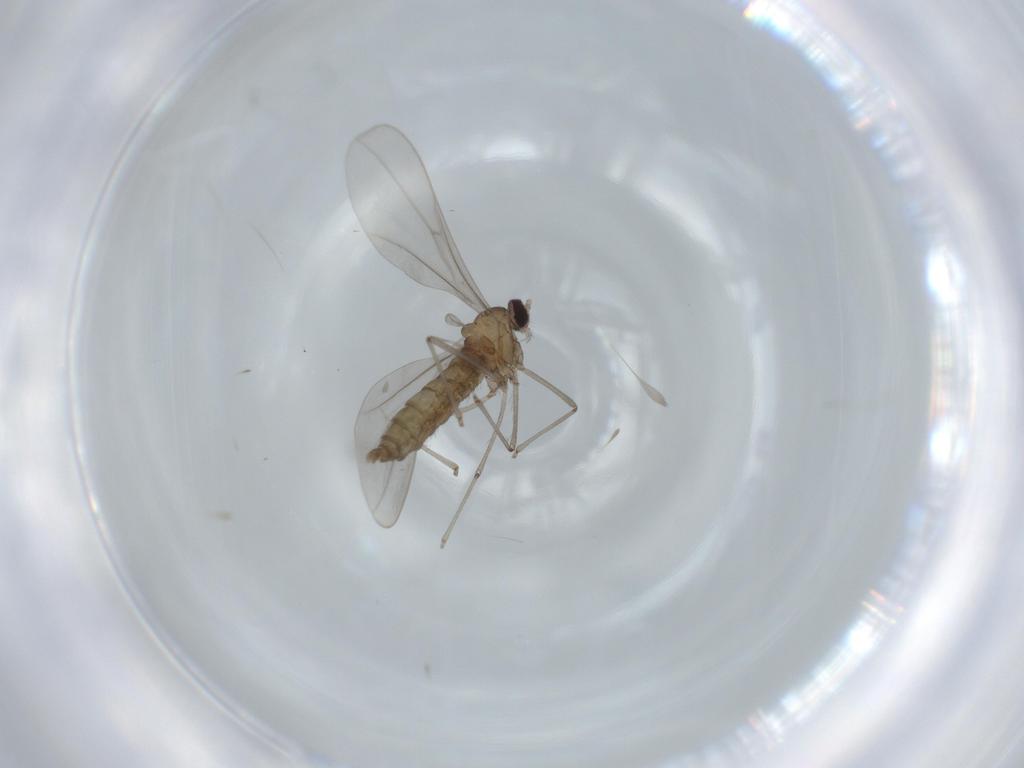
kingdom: Animalia
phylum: Arthropoda
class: Insecta
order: Diptera
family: Cecidomyiidae
